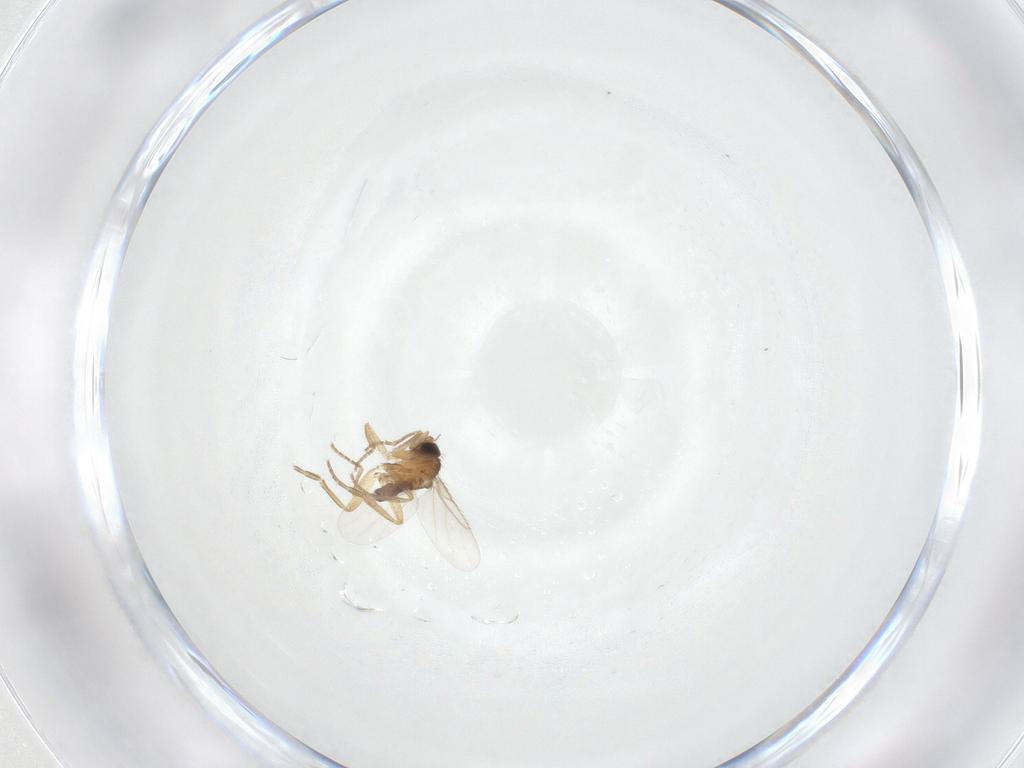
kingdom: Animalia
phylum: Arthropoda
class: Insecta
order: Diptera
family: Phoridae
